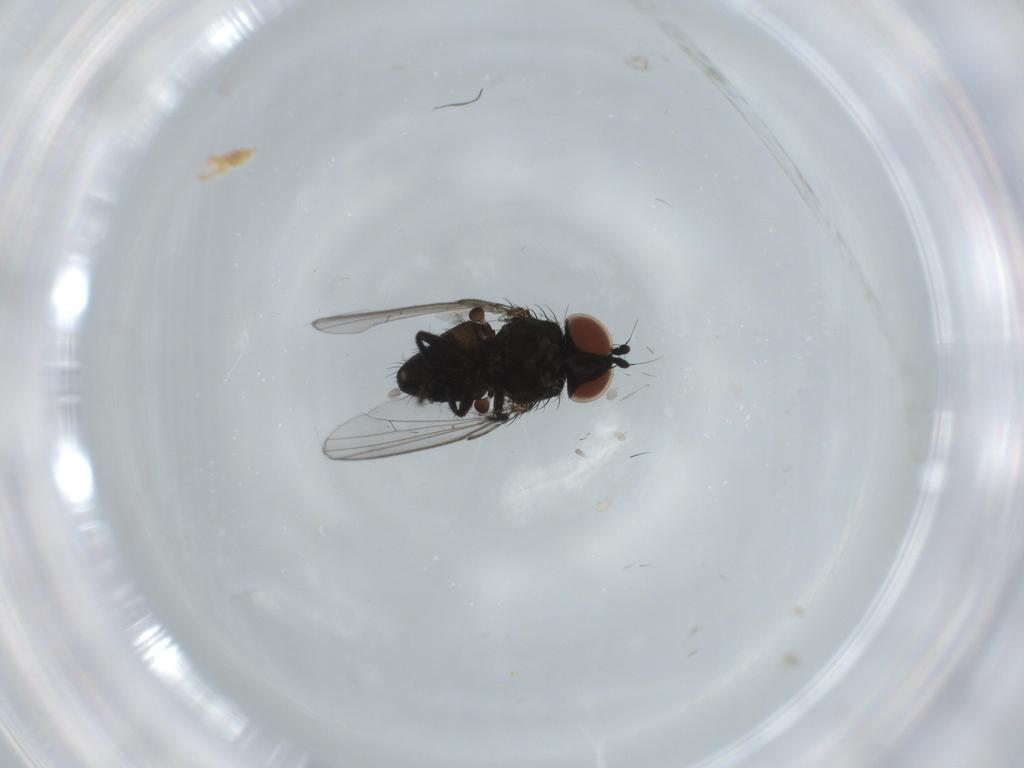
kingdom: Animalia
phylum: Arthropoda
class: Insecta
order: Diptera
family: Milichiidae
